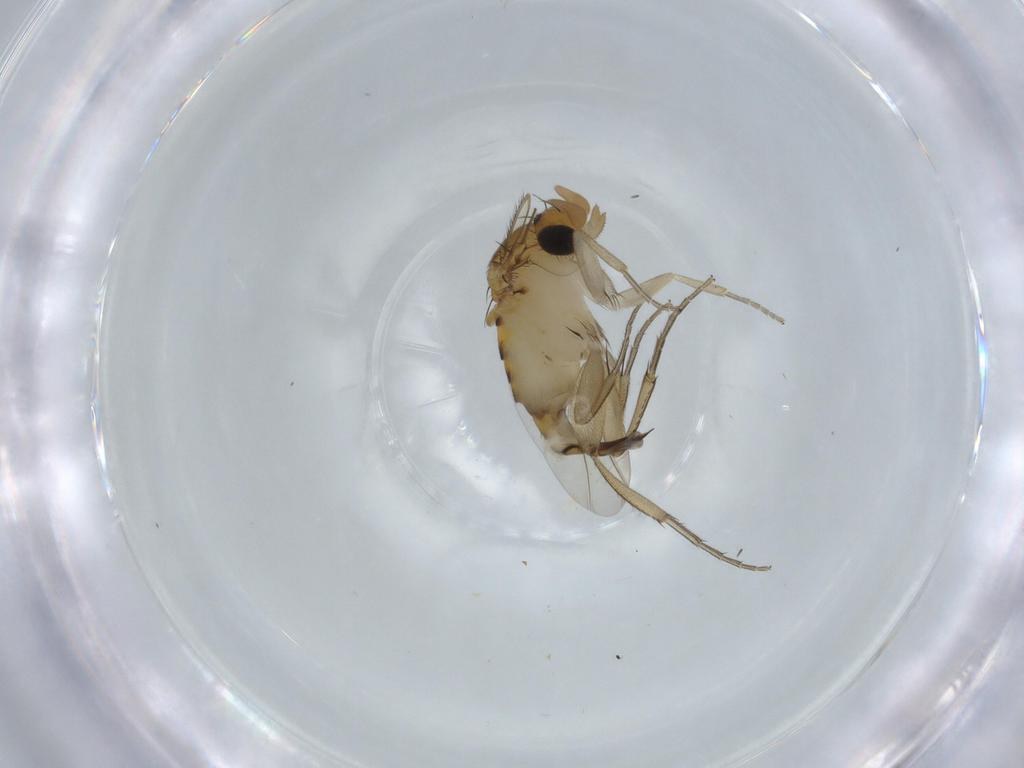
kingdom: Animalia
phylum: Arthropoda
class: Insecta
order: Diptera
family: Phoridae
